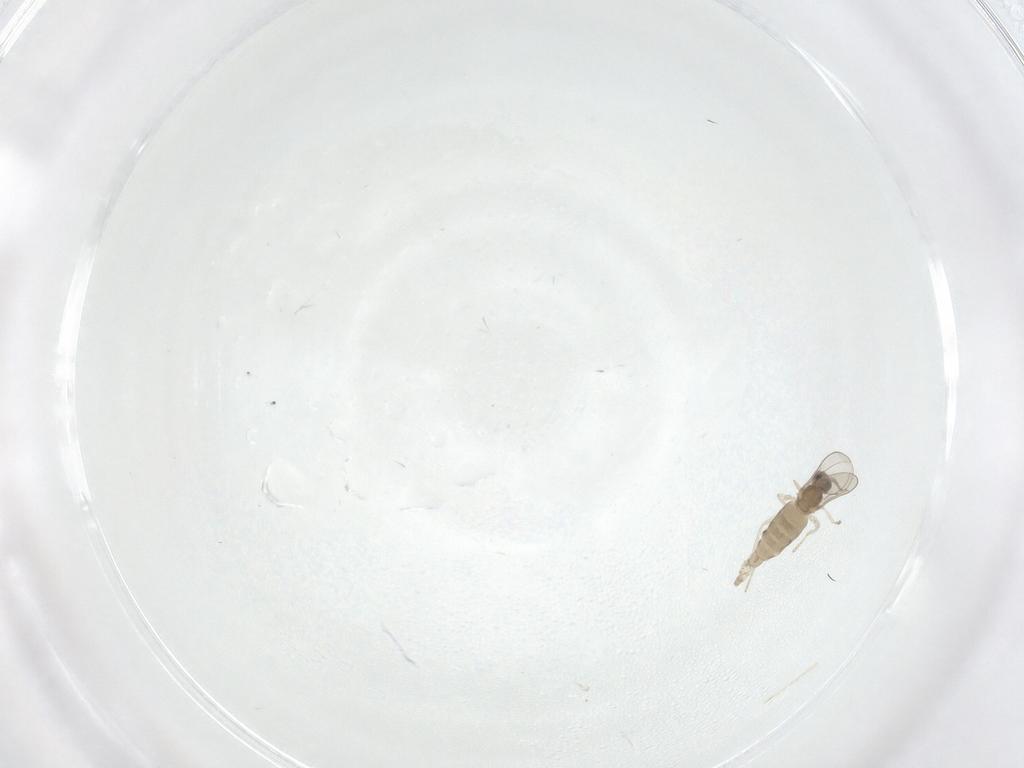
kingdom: Animalia
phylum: Arthropoda
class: Insecta
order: Diptera
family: Cecidomyiidae
